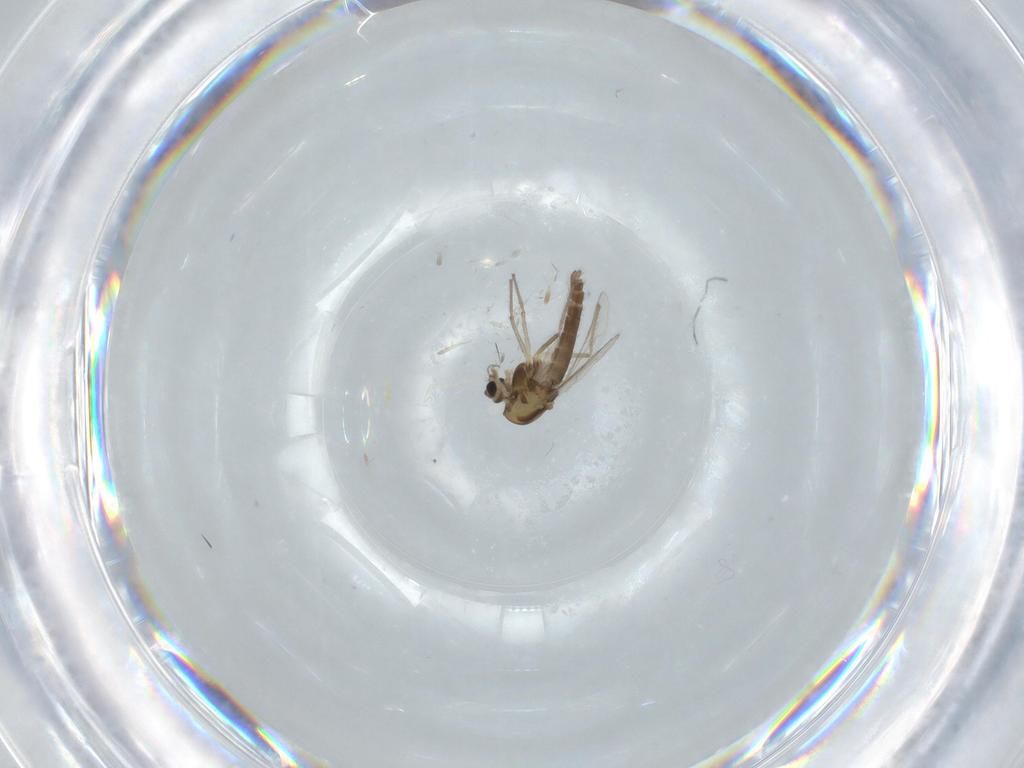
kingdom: Animalia
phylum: Arthropoda
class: Insecta
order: Diptera
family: Chironomidae
